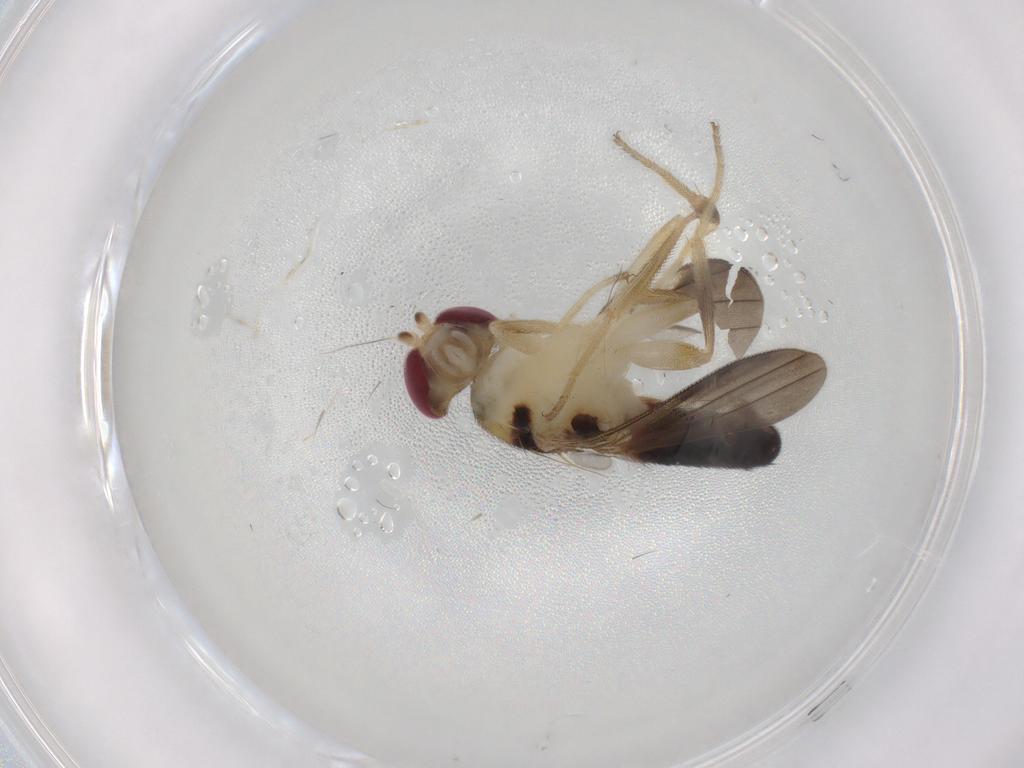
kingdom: Animalia
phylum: Arthropoda
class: Insecta
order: Diptera
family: Clusiidae
